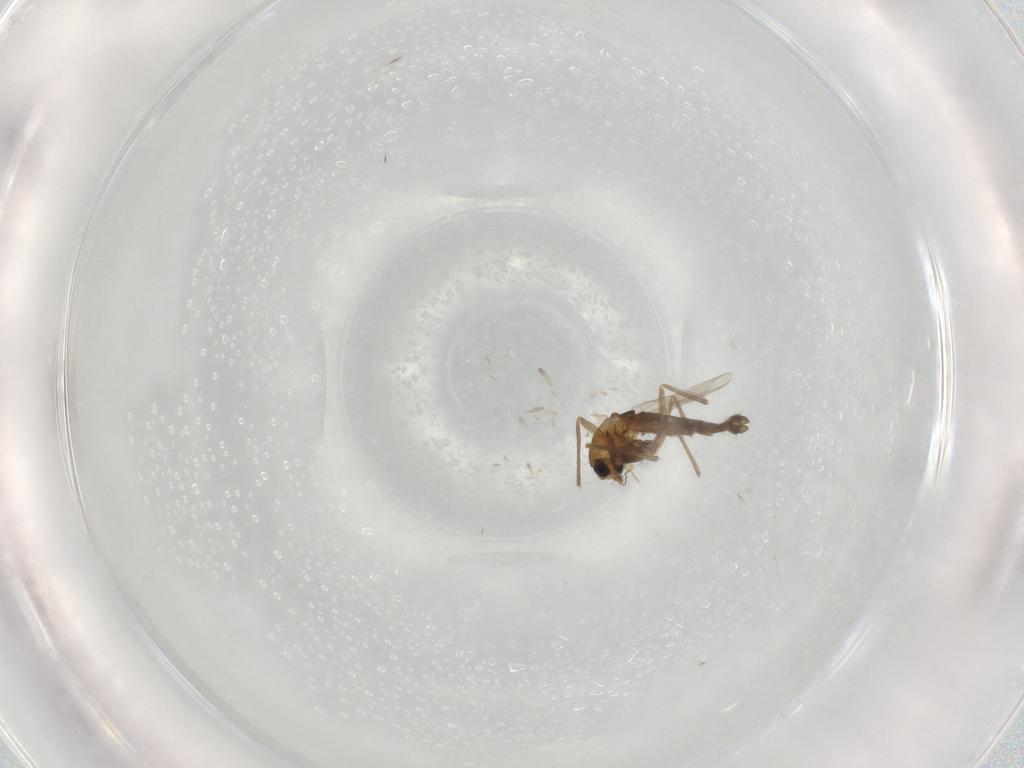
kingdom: Animalia
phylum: Arthropoda
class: Insecta
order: Diptera
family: Chironomidae
